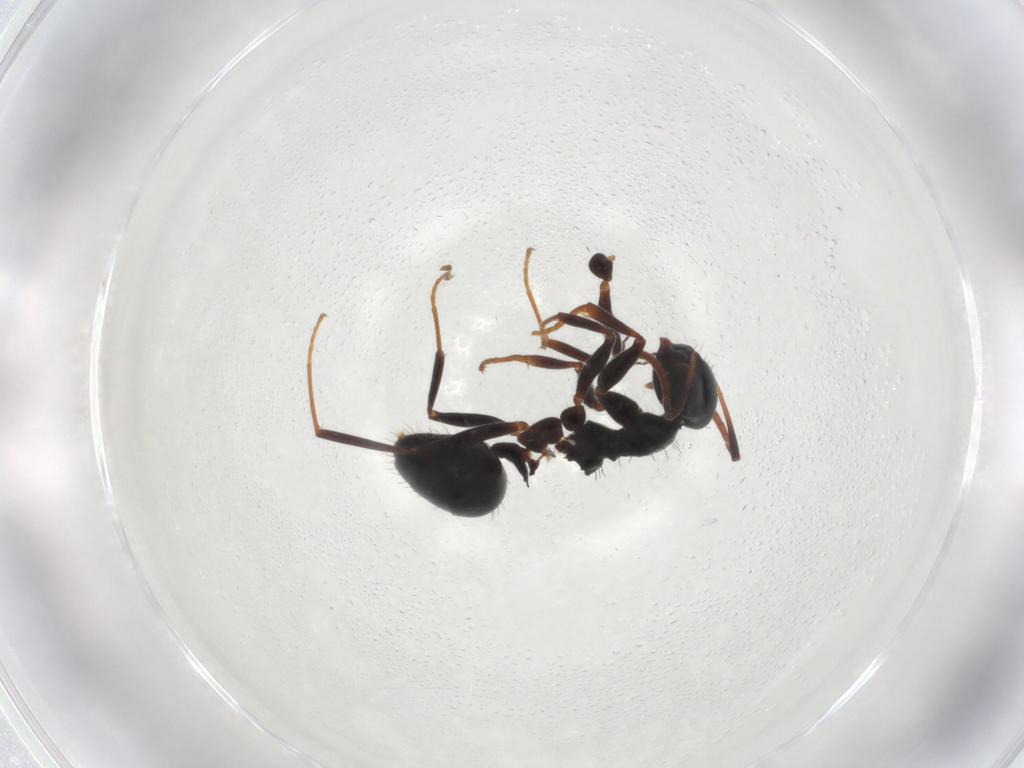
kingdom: Animalia
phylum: Arthropoda
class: Insecta
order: Hymenoptera
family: Formicidae
